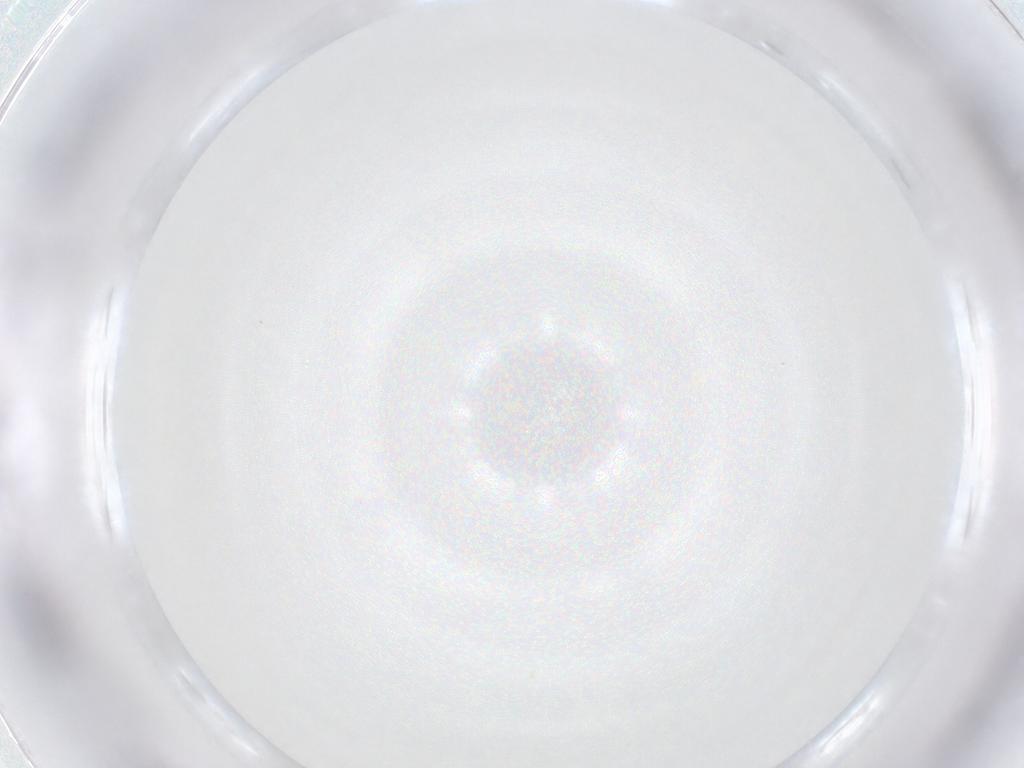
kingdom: Animalia
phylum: Arthropoda
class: Insecta
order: Diptera
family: Phoridae
